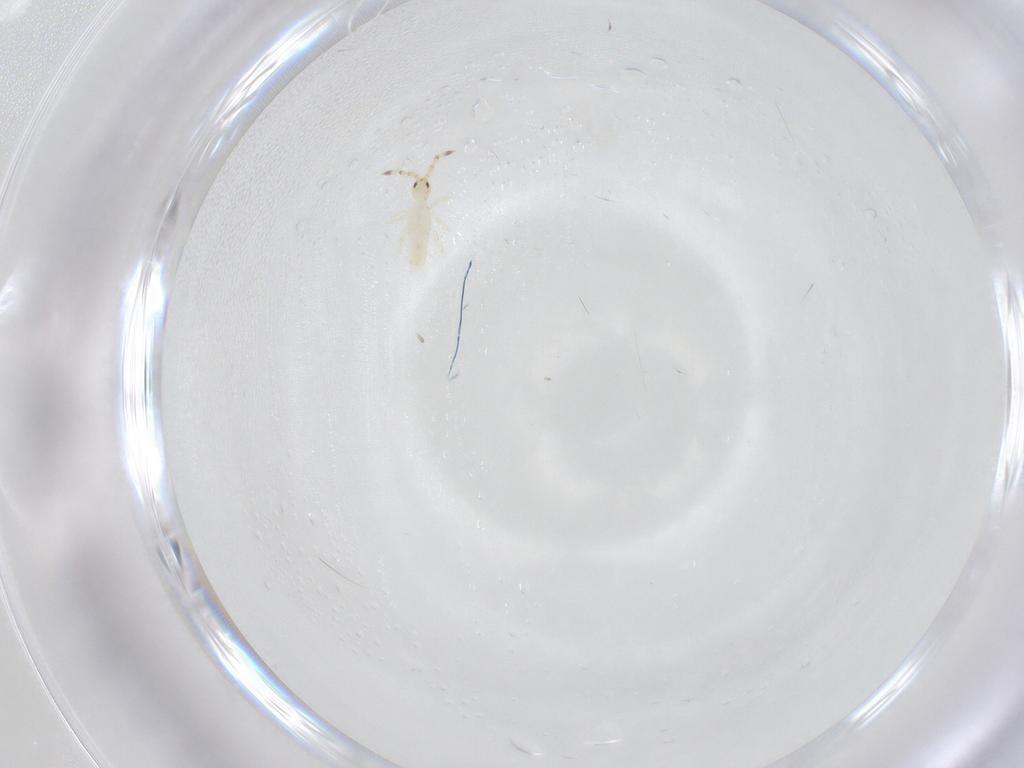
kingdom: Animalia
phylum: Arthropoda
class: Collembola
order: Entomobryomorpha
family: Entomobryidae
